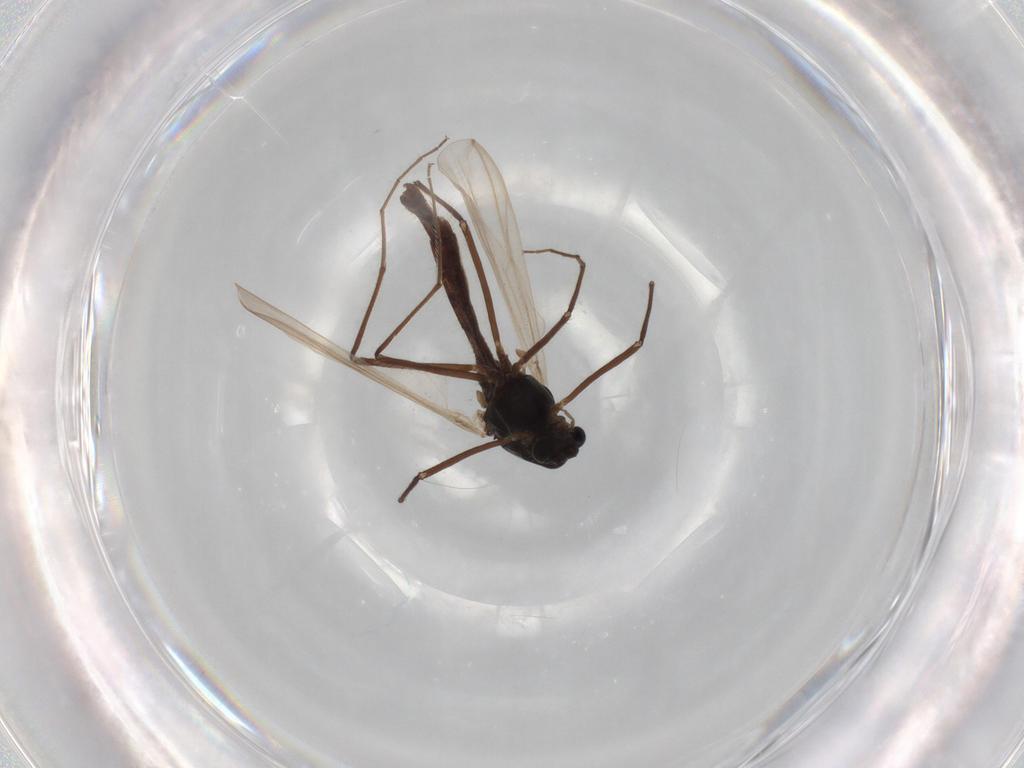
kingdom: Animalia
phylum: Arthropoda
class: Insecta
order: Diptera
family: Psychodidae
